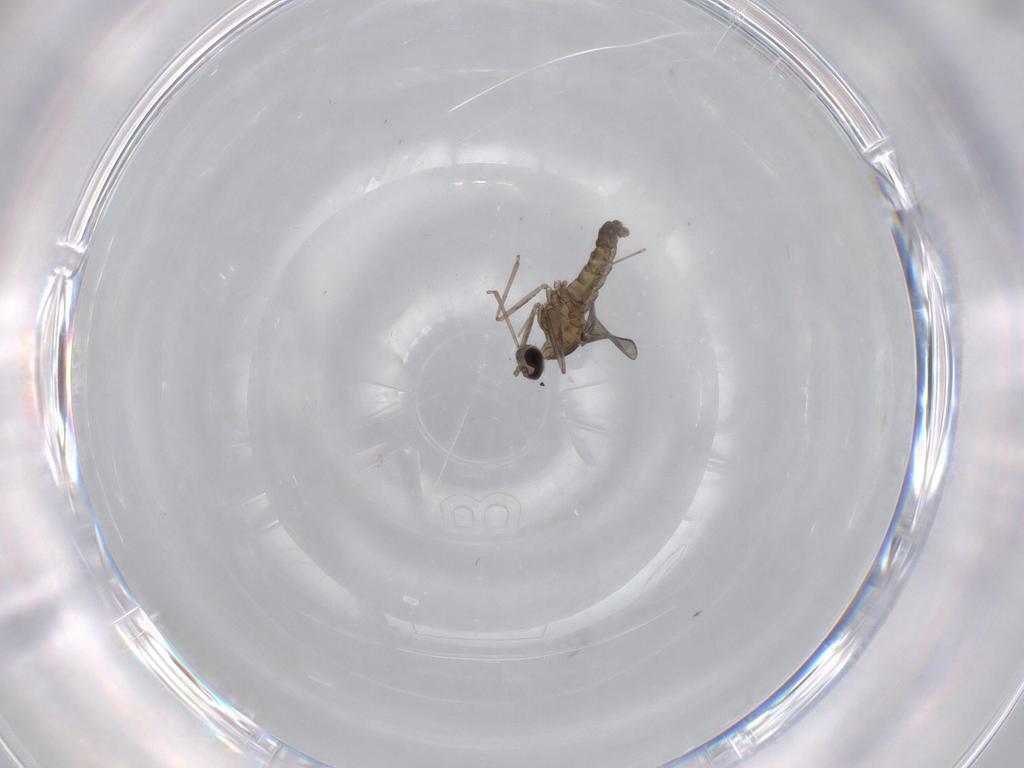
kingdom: Animalia
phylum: Arthropoda
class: Insecta
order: Diptera
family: Cecidomyiidae
